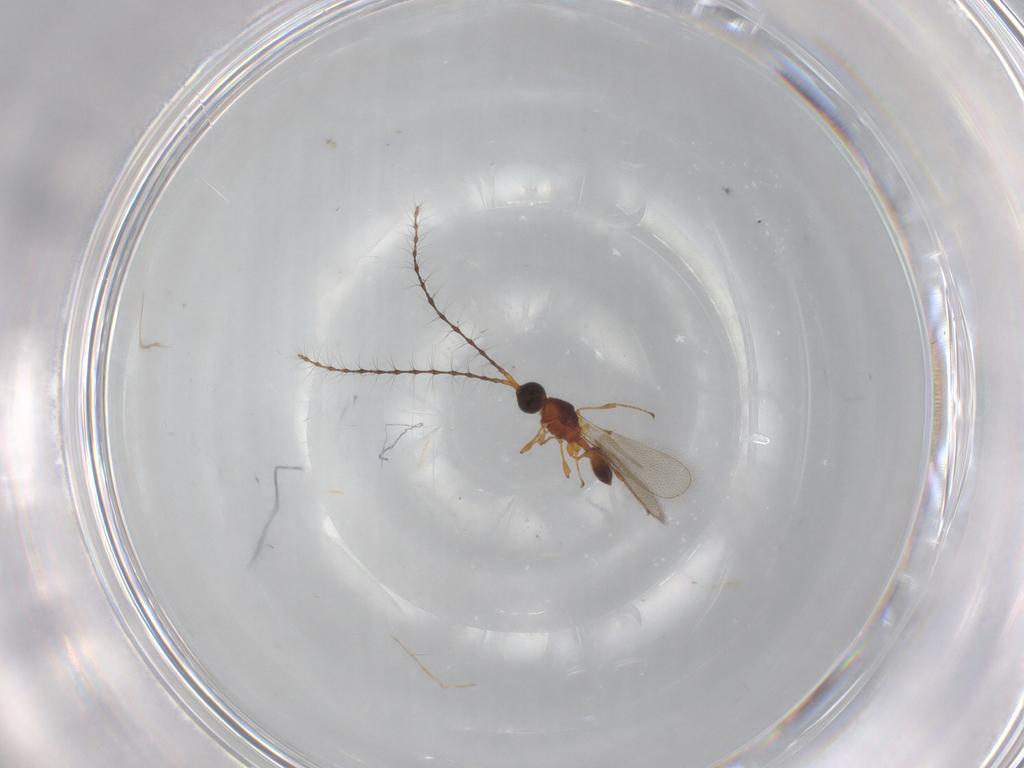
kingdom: Animalia
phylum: Arthropoda
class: Insecta
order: Hymenoptera
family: Diapriidae
